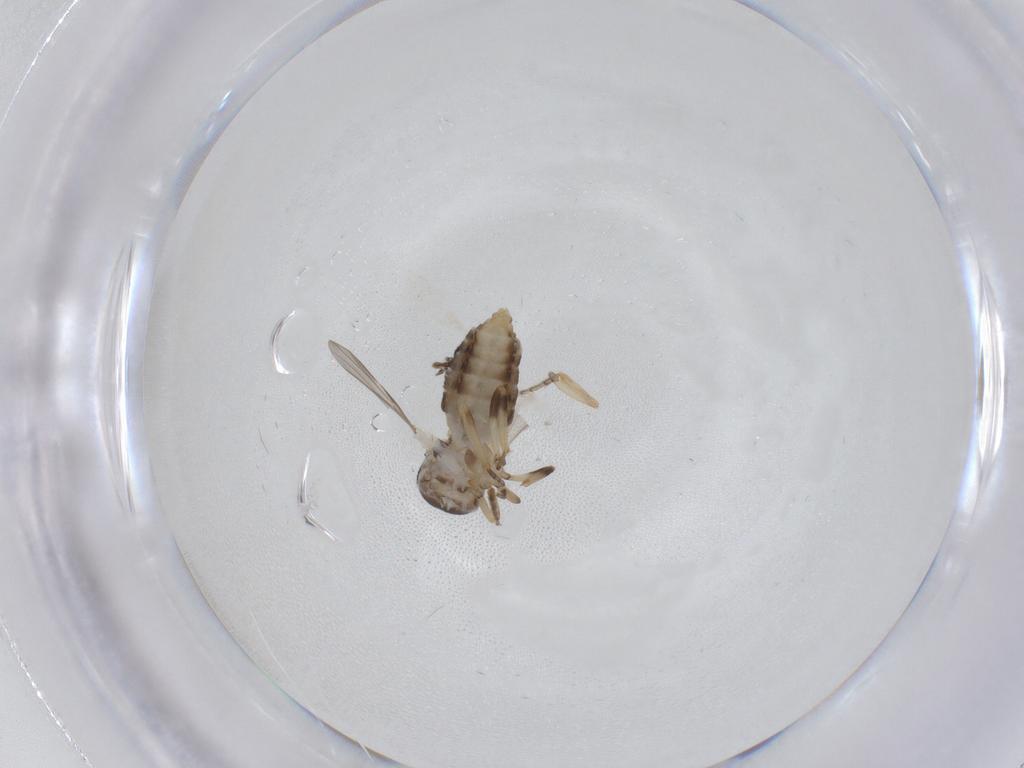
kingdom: Animalia
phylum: Arthropoda
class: Insecta
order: Diptera
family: Ceratopogonidae
